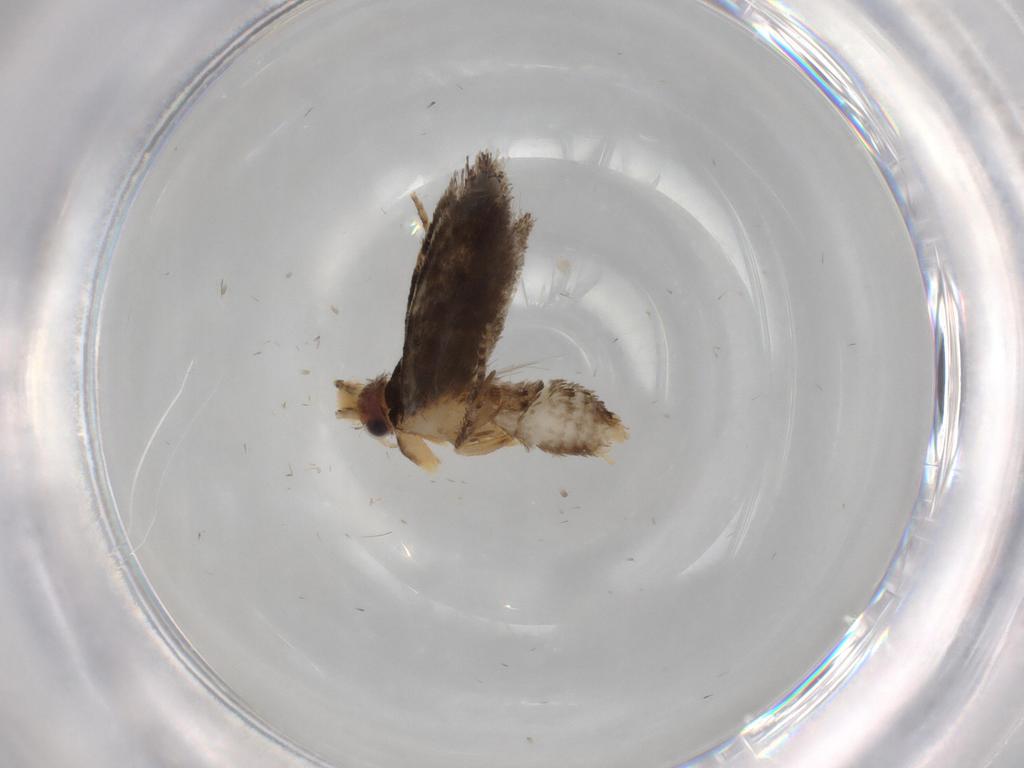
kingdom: Animalia
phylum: Arthropoda
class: Insecta
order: Lepidoptera
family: Tineidae
